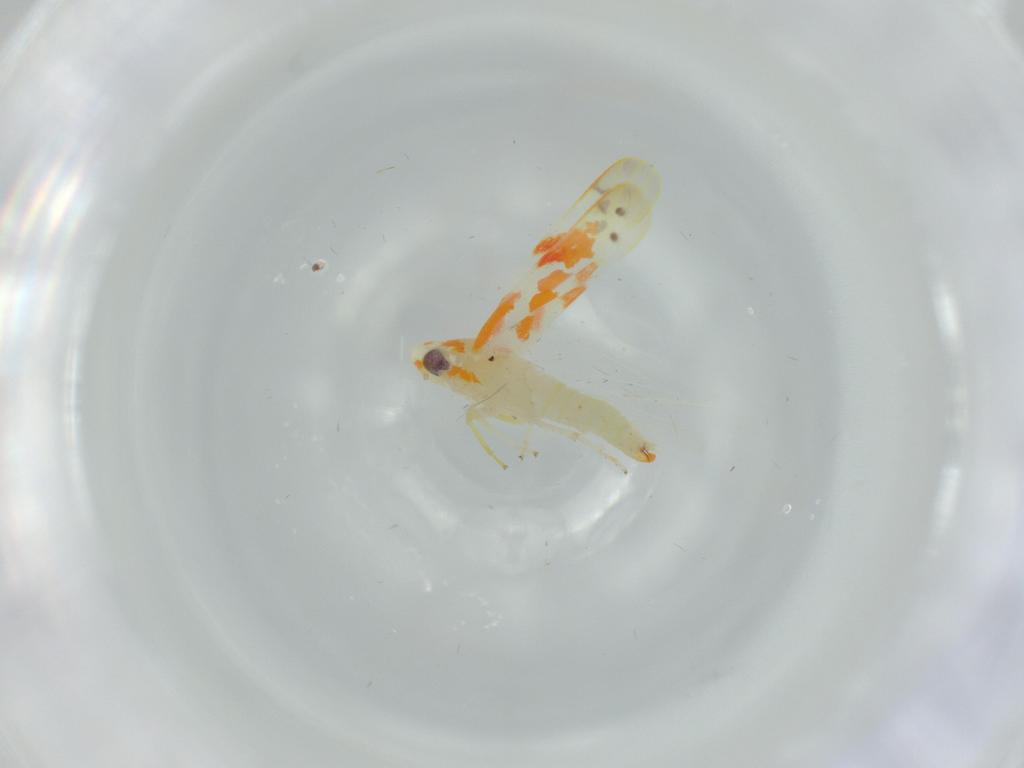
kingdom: Animalia
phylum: Arthropoda
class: Insecta
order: Hemiptera
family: Cicadellidae
